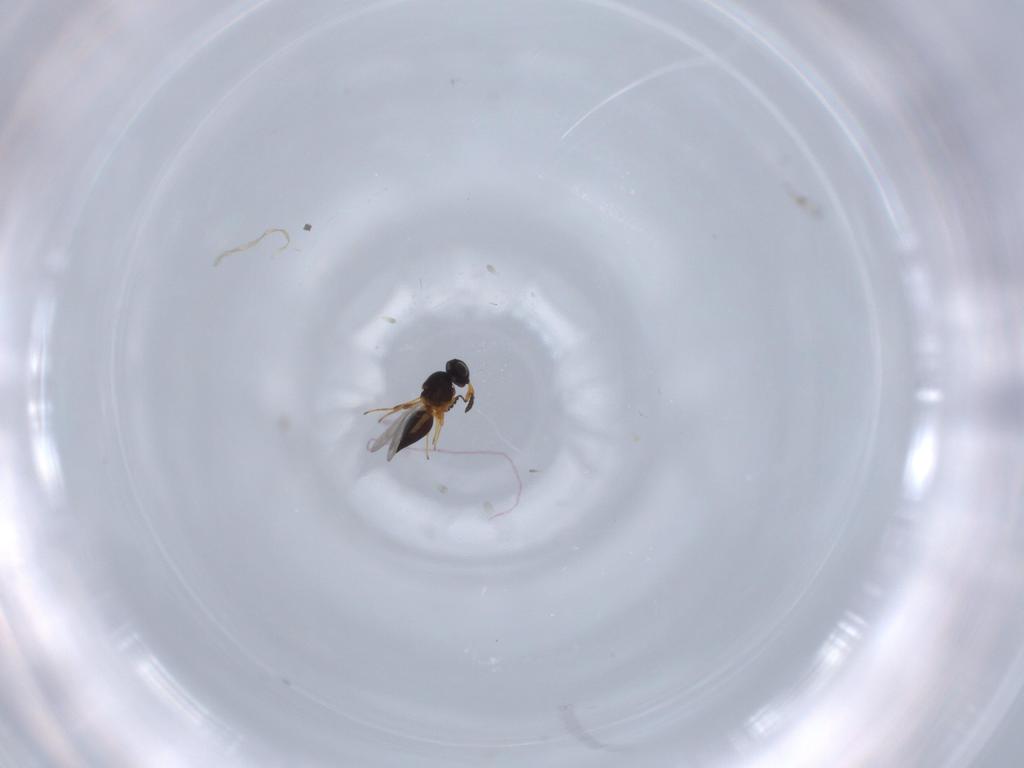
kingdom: Animalia
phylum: Arthropoda
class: Insecta
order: Hymenoptera
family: Platygastridae
